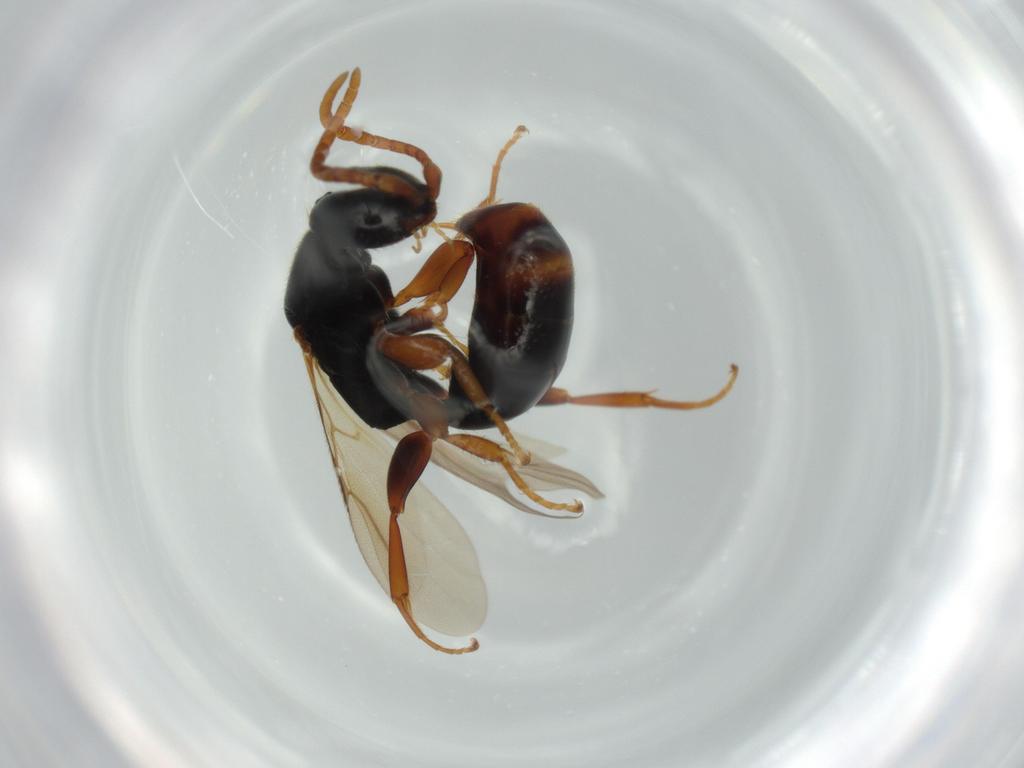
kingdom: Animalia
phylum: Arthropoda
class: Insecta
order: Hymenoptera
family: Bethylidae
